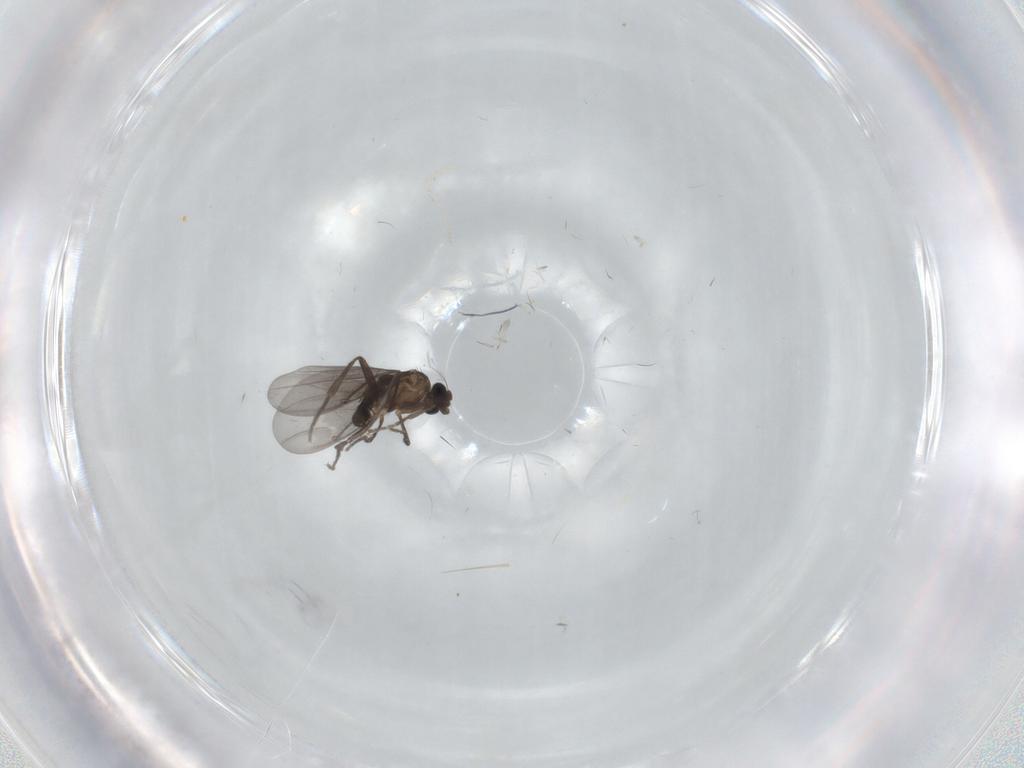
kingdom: Animalia
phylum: Arthropoda
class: Insecta
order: Diptera
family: Phoridae
